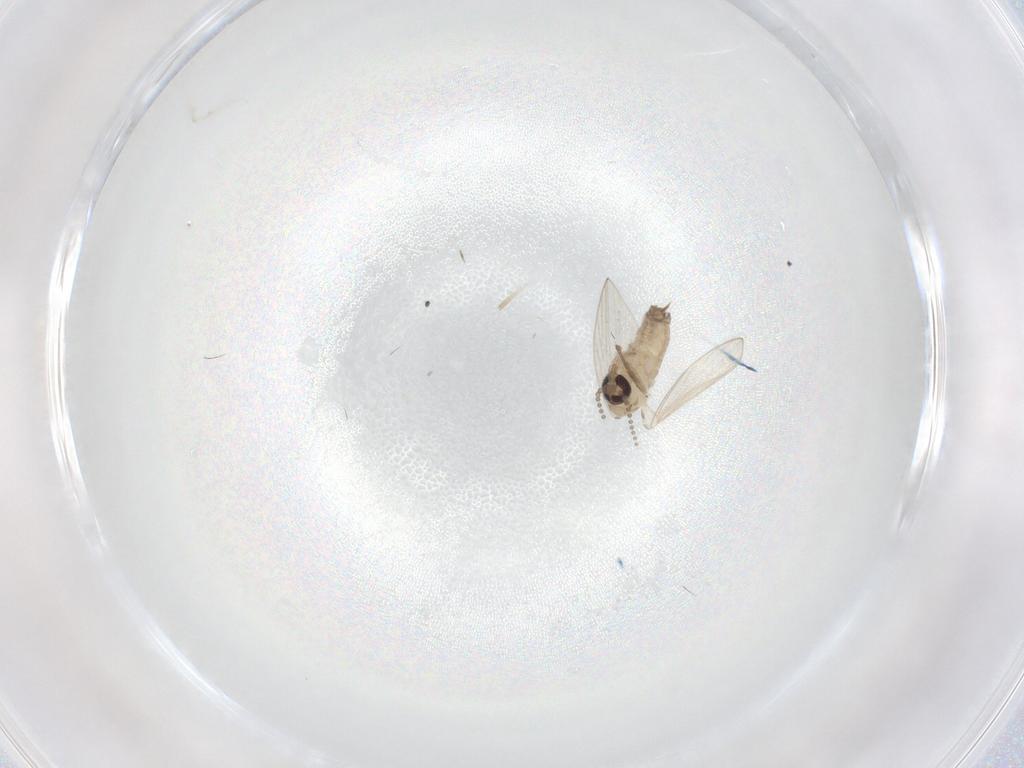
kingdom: Animalia
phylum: Arthropoda
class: Insecta
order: Diptera
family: Psychodidae
